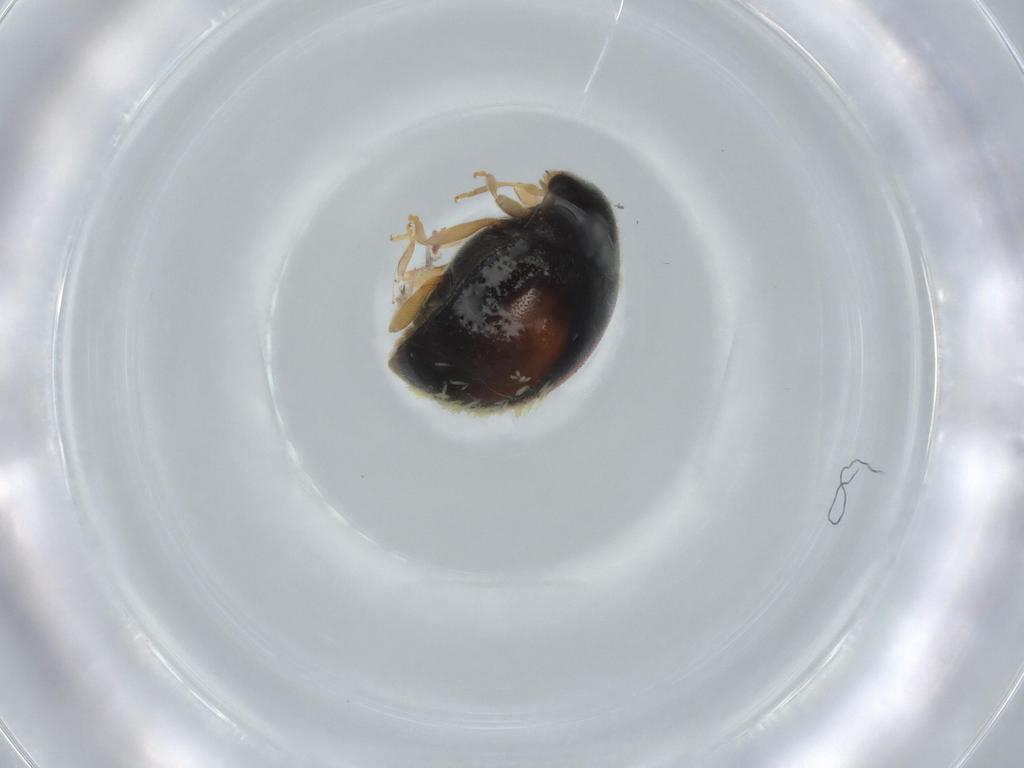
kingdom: Animalia
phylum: Arthropoda
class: Insecta
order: Coleoptera
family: Coccinellidae
